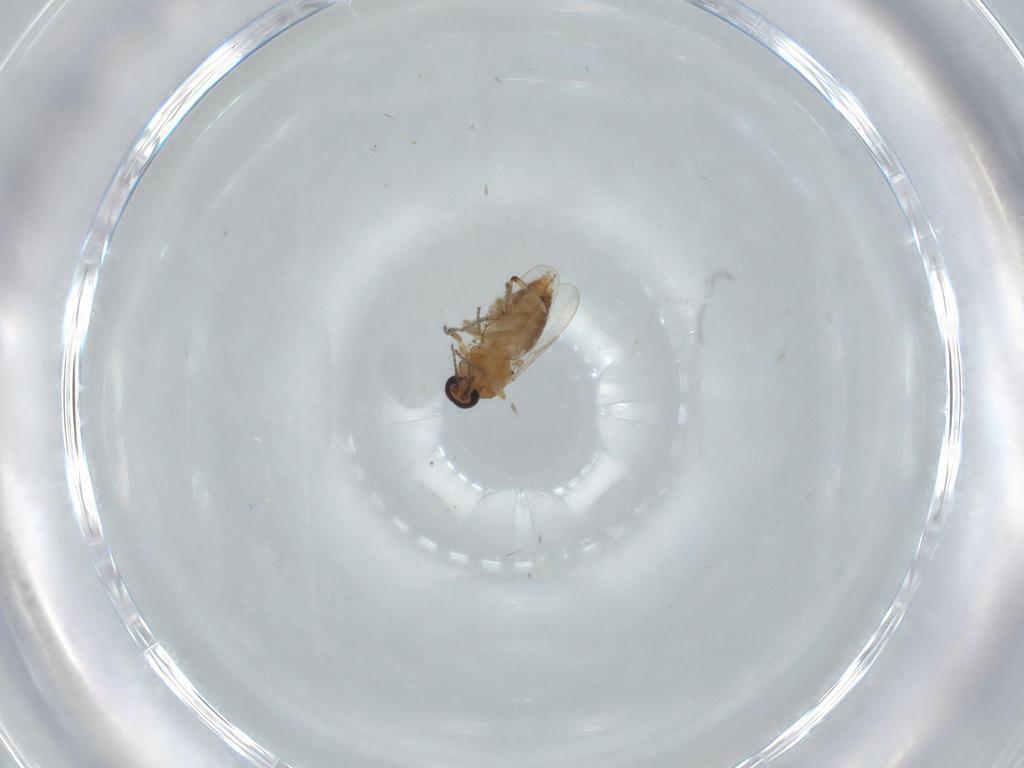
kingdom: Animalia
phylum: Arthropoda
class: Insecta
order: Diptera
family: Ceratopogonidae
